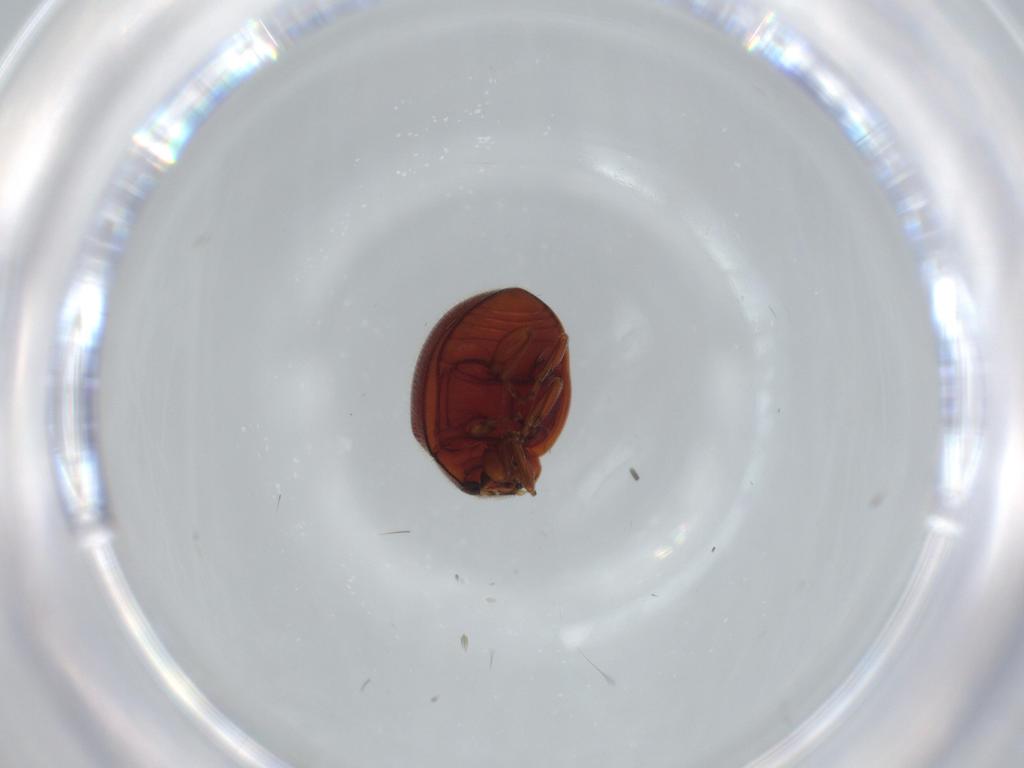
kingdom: Animalia
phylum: Arthropoda
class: Insecta
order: Coleoptera
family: Coccinellidae
